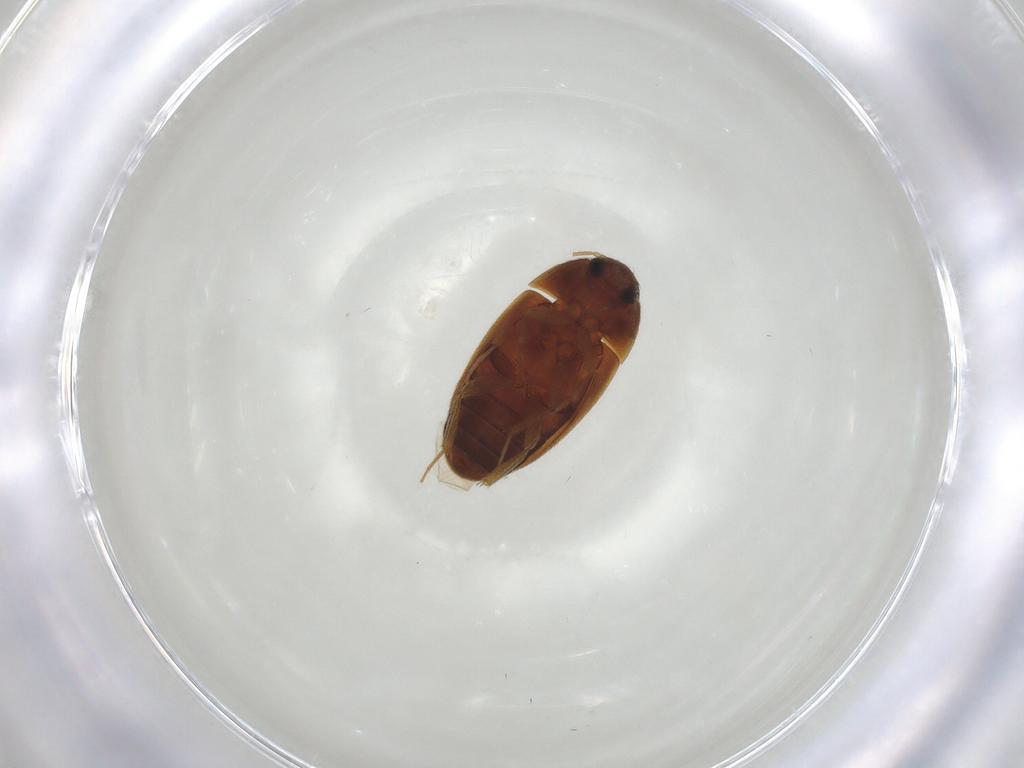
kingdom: Animalia
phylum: Arthropoda
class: Insecta
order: Coleoptera
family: Mycetophagidae
